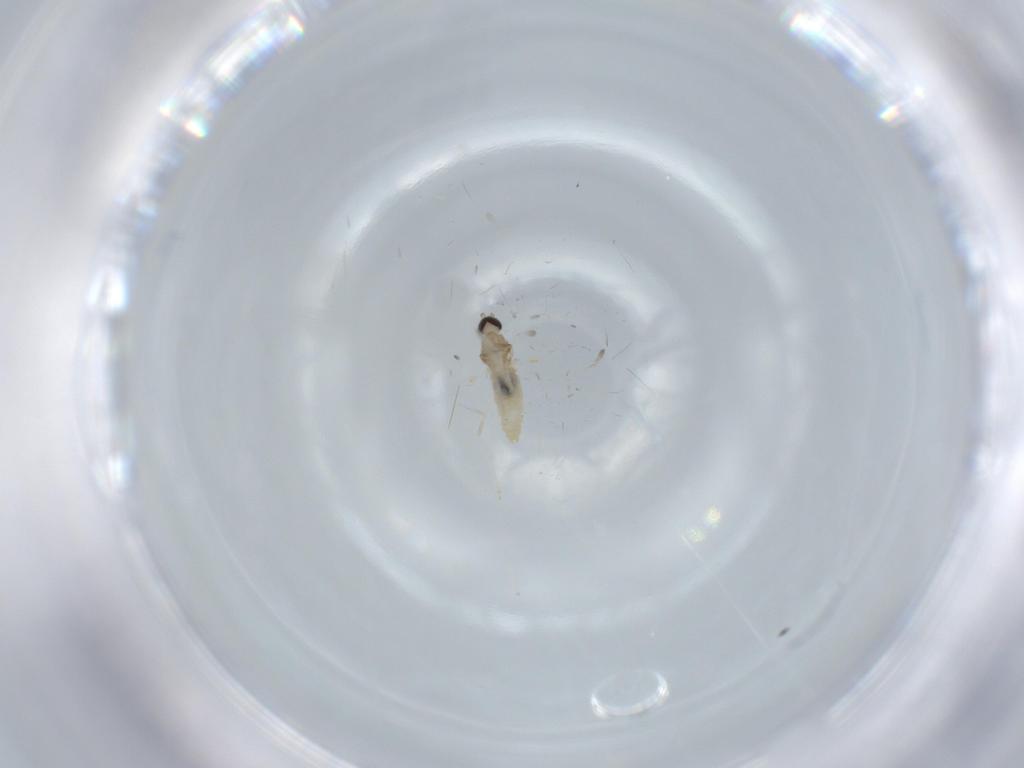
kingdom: Animalia
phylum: Arthropoda
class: Insecta
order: Diptera
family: Cecidomyiidae
